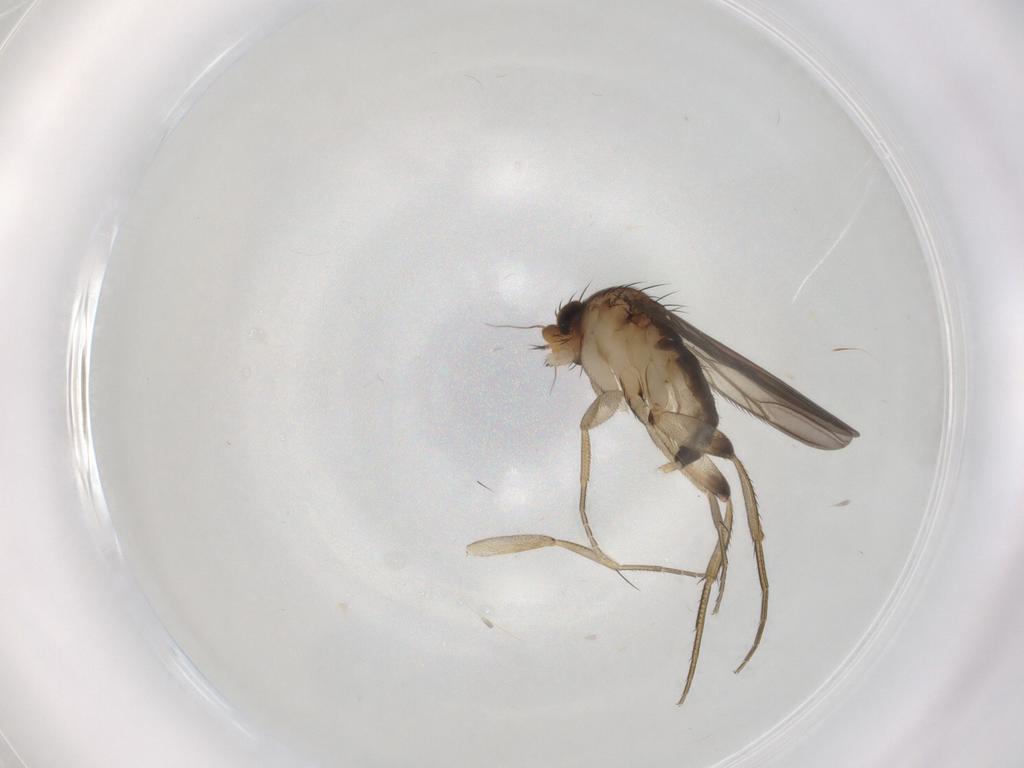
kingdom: Animalia
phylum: Arthropoda
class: Insecta
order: Diptera
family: Phoridae
